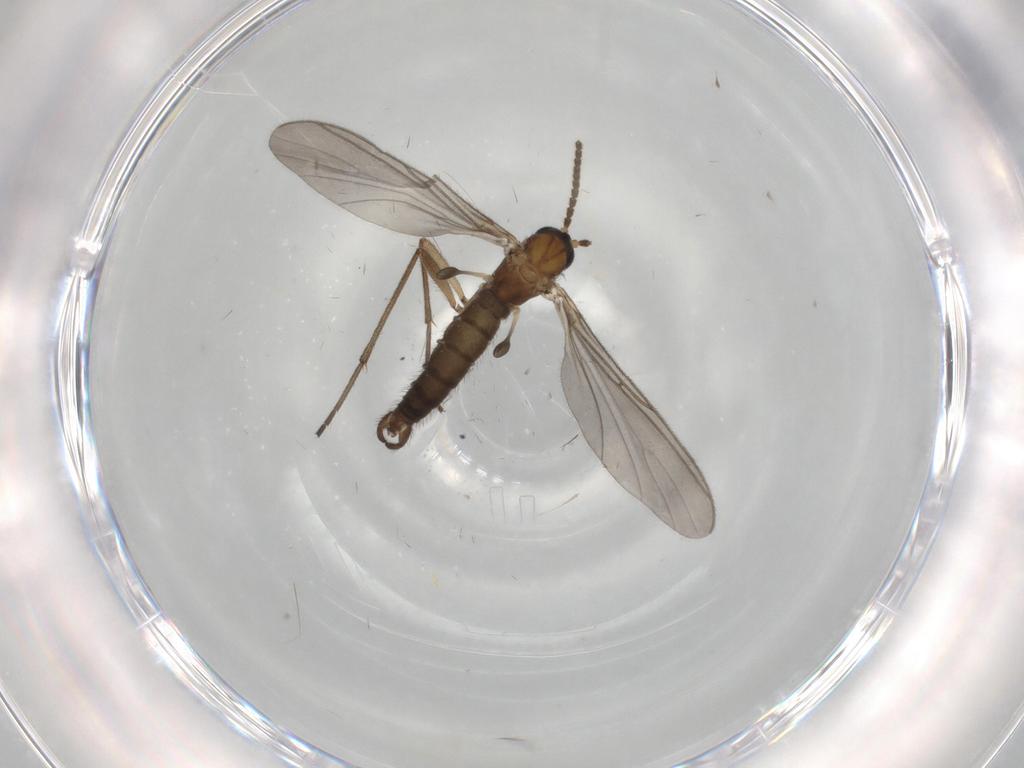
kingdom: Animalia
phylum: Arthropoda
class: Insecta
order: Diptera
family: Sciaridae
